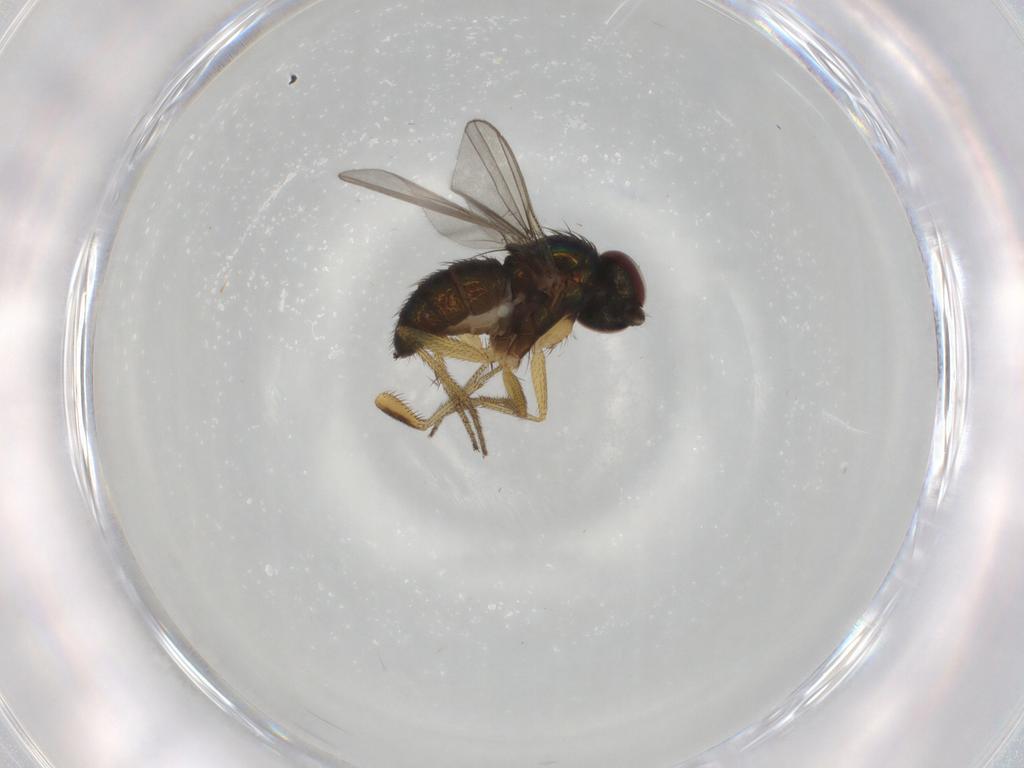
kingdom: Animalia
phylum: Arthropoda
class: Insecta
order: Diptera
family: Dolichopodidae
